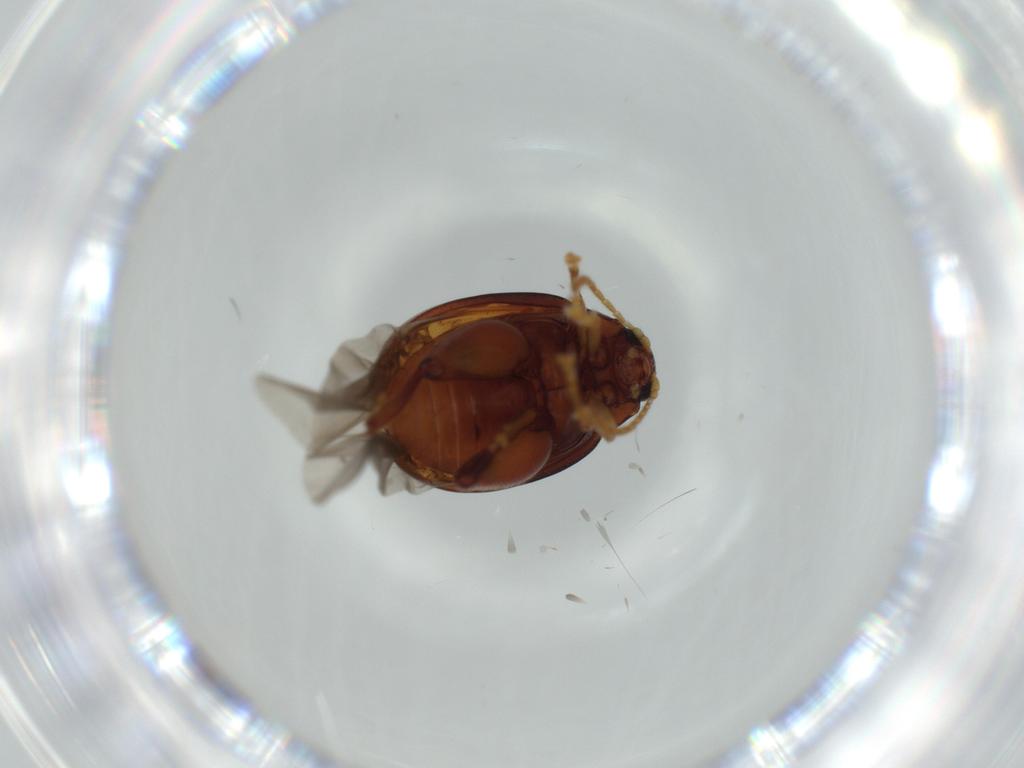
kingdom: Animalia
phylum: Arthropoda
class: Insecta
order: Coleoptera
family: Chrysomelidae
